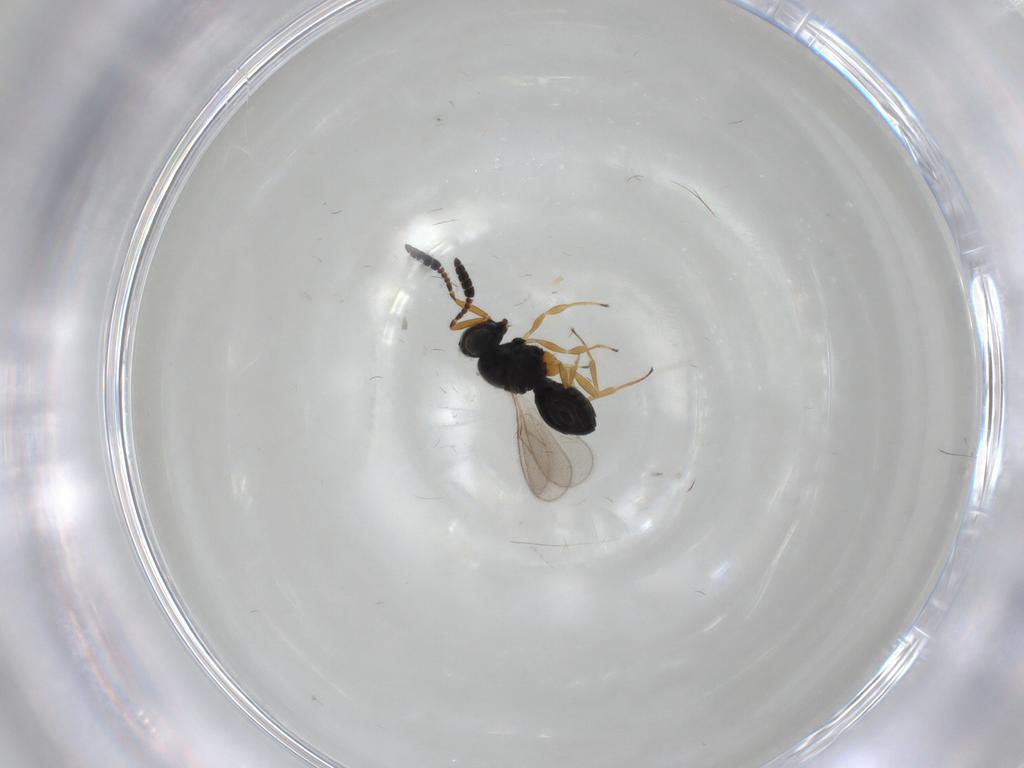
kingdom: Animalia
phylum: Arthropoda
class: Insecta
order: Hymenoptera
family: Scelionidae
